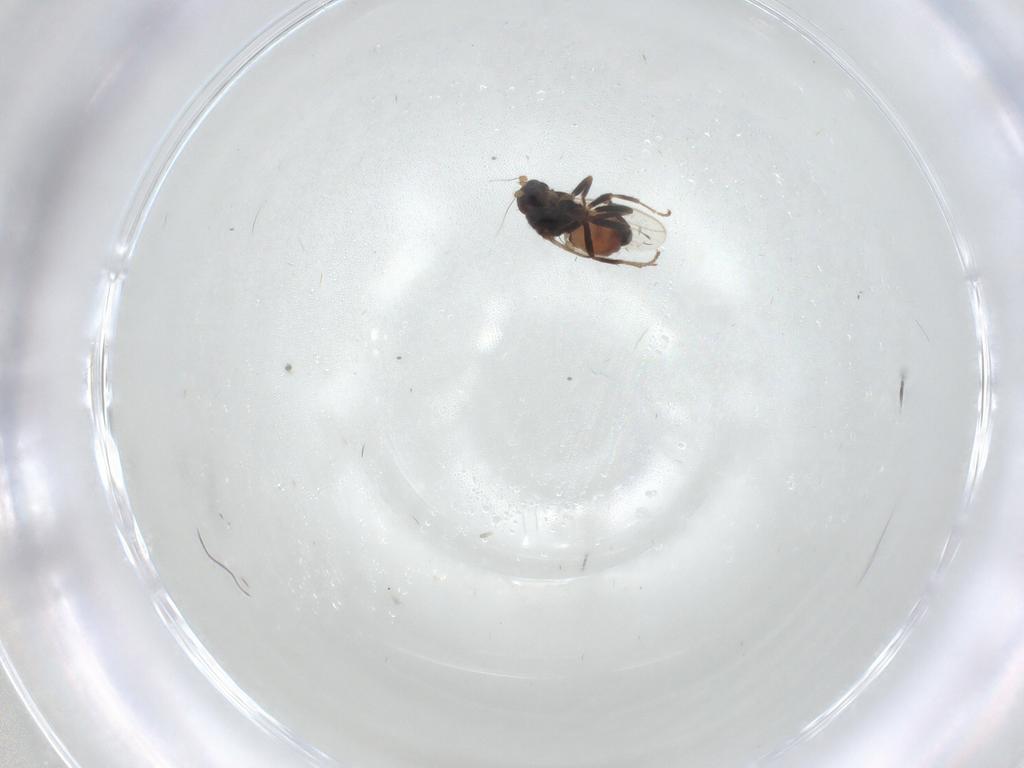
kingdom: Animalia
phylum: Arthropoda
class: Insecta
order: Diptera
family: Sphaeroceridae
